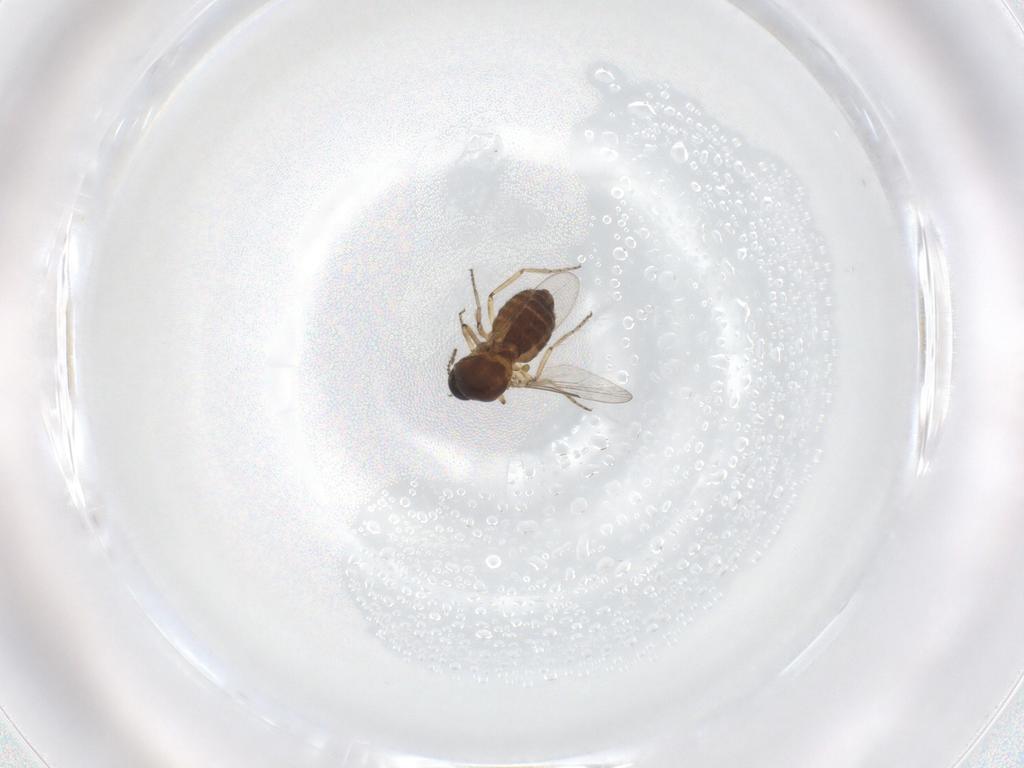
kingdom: Animalia
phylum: Arthropoda
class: Insecta
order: Diptera
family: Ceratopogonidae
